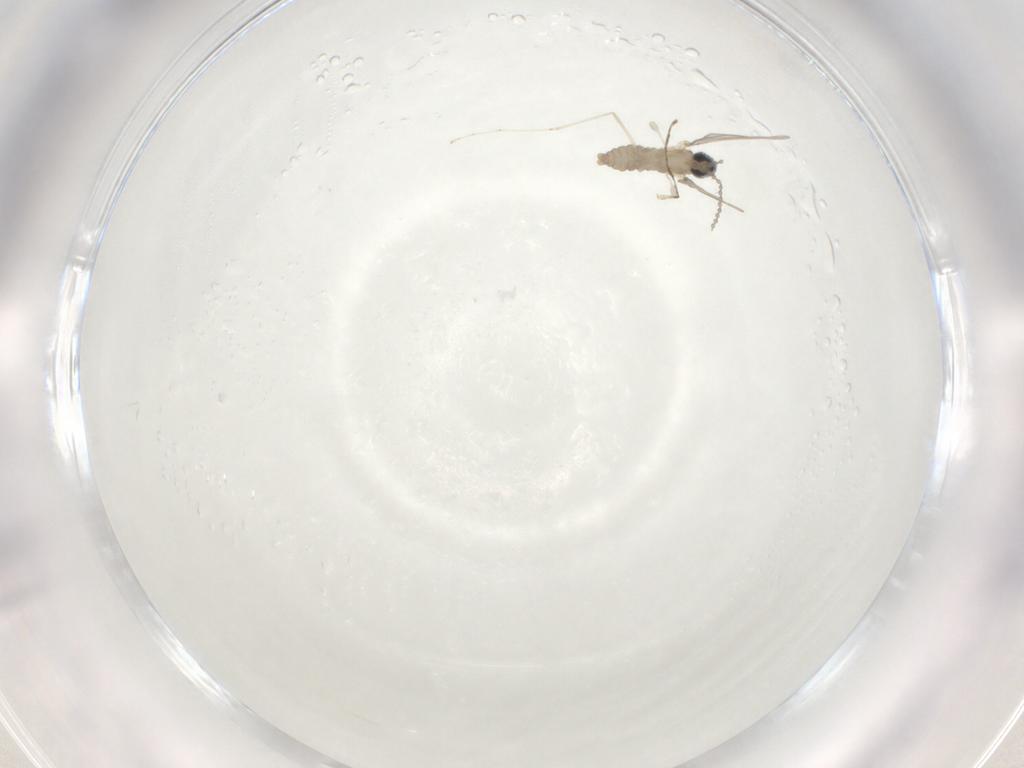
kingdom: Animalia
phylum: Arthropoda
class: Insecta
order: Diptera
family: Cecidomyiidae
